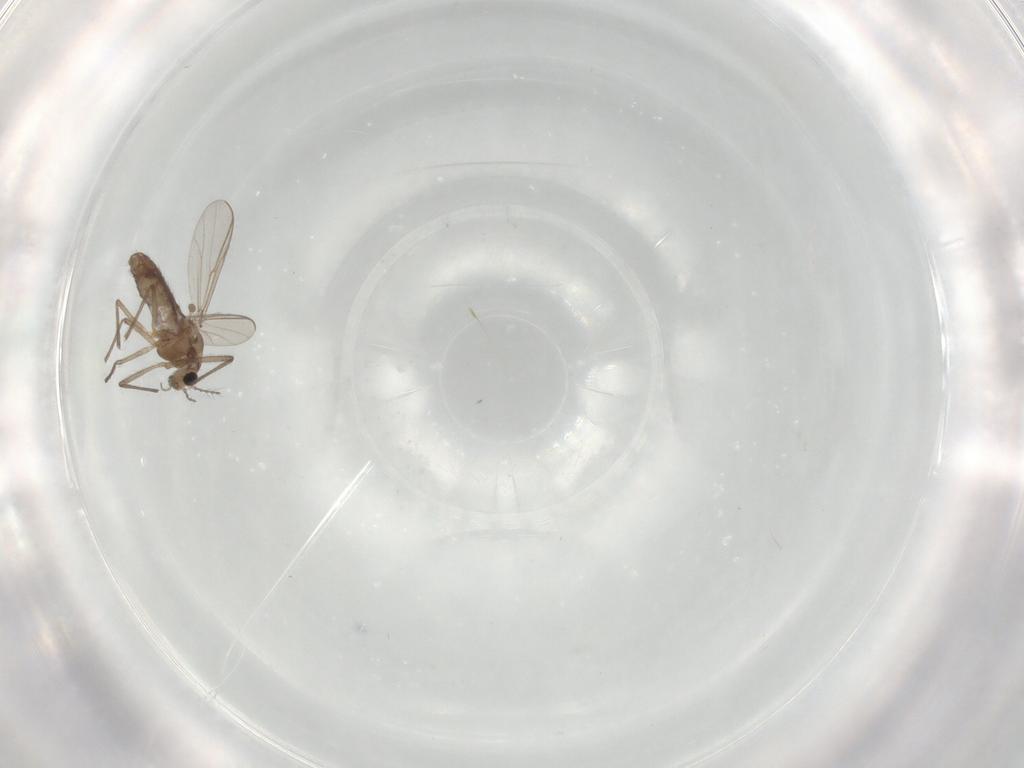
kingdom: Animalia
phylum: Arthropoda
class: Insecta
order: Diptera
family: Chironomidae
